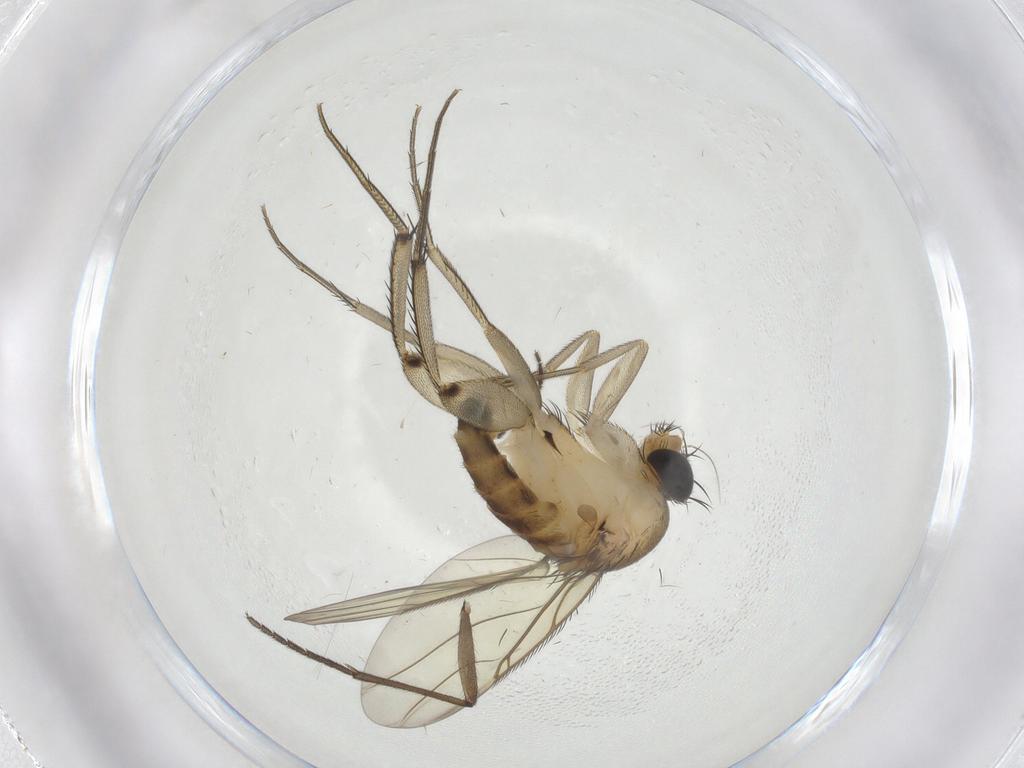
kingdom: Animalia
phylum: Arthropoda
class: Insecta
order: Diptera
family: Phoridae
